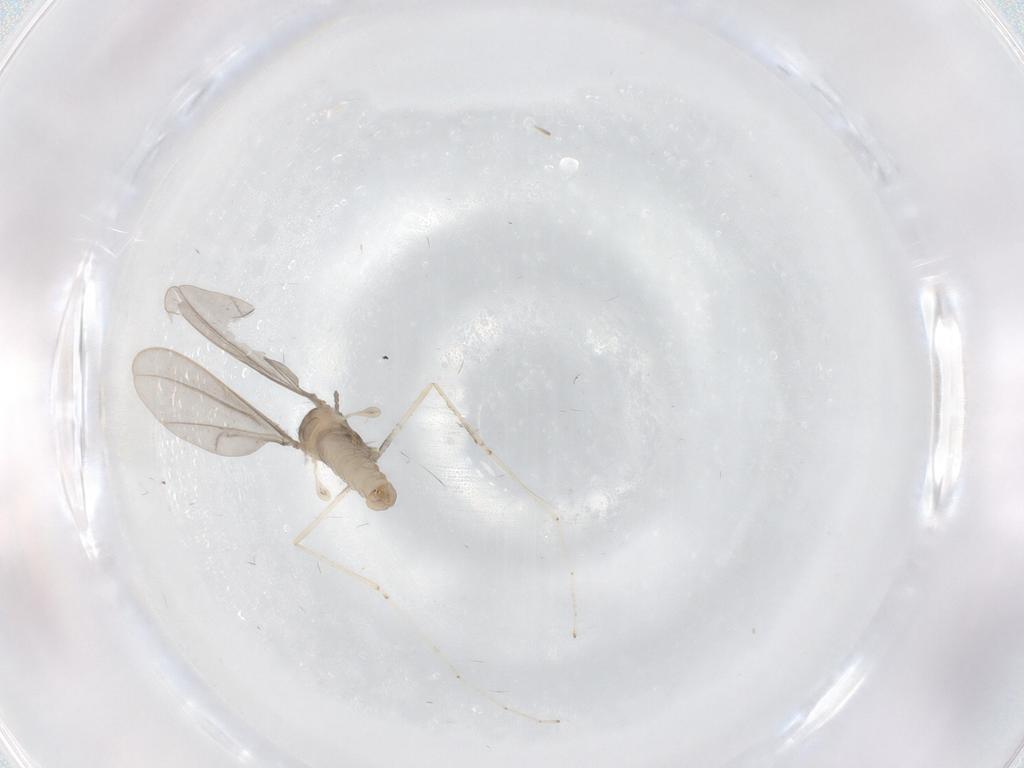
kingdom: Animalia
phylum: Arthropoda
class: Insecta
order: Diptera
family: Cecidomyiidae
